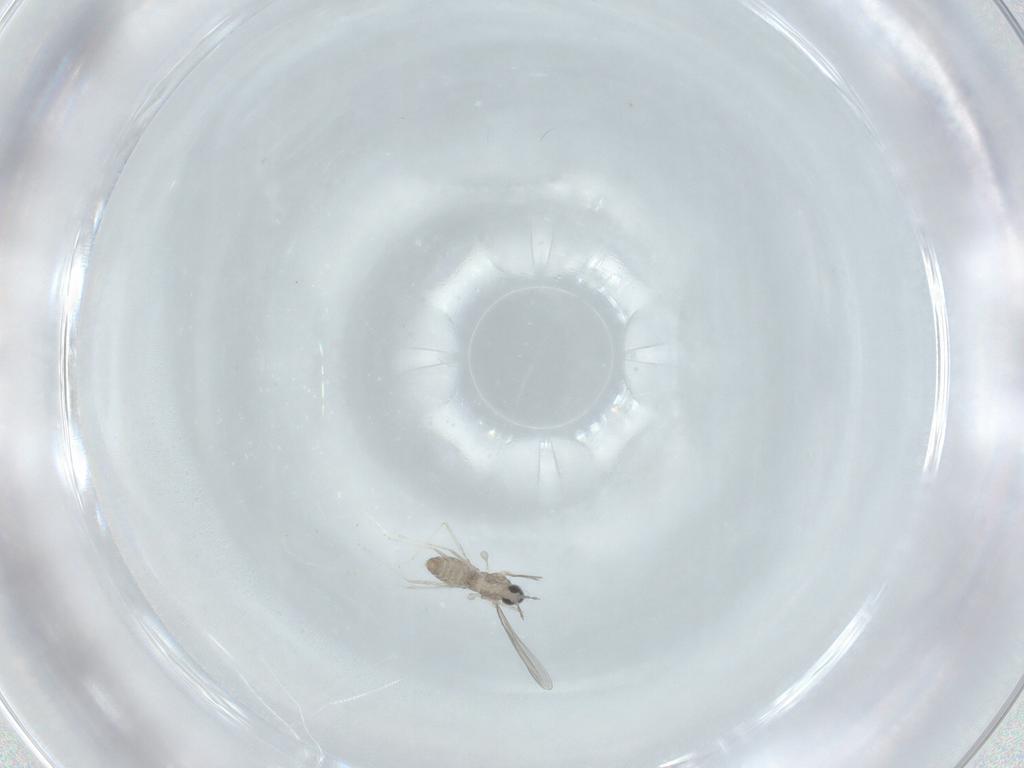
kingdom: Animalia
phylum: Arthropoda
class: Insecta
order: Diptera
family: Cecidomyiidae
